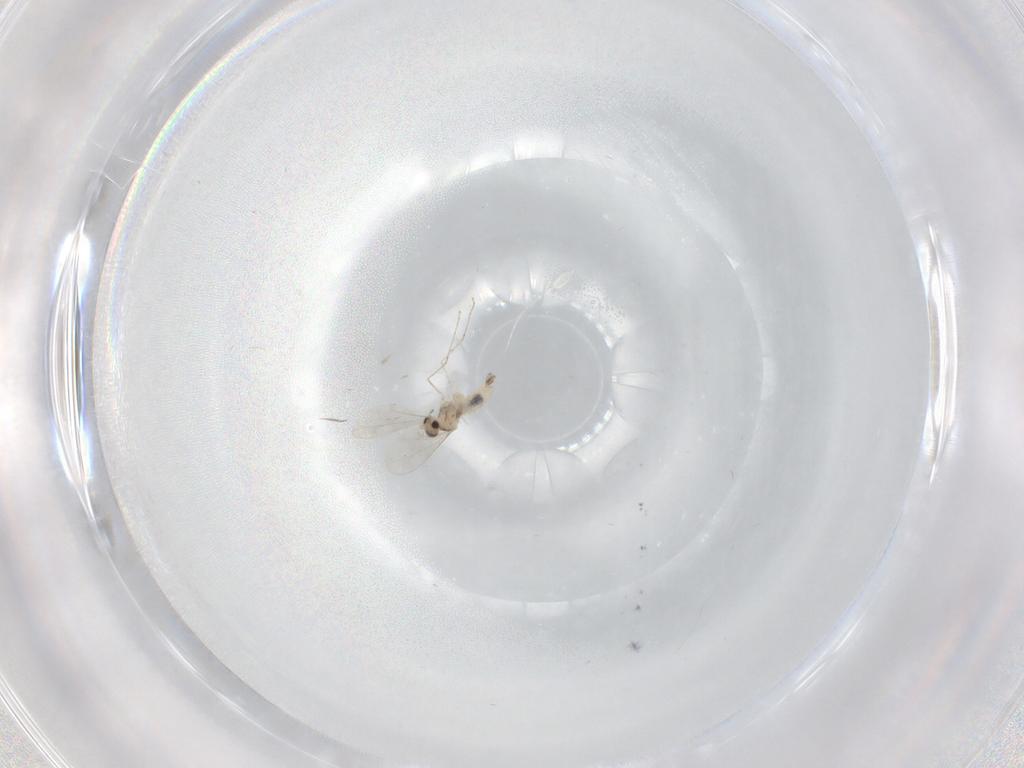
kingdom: Animalia
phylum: Arthropoda
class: Insecta
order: Diptera
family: Cecidomyiidae
